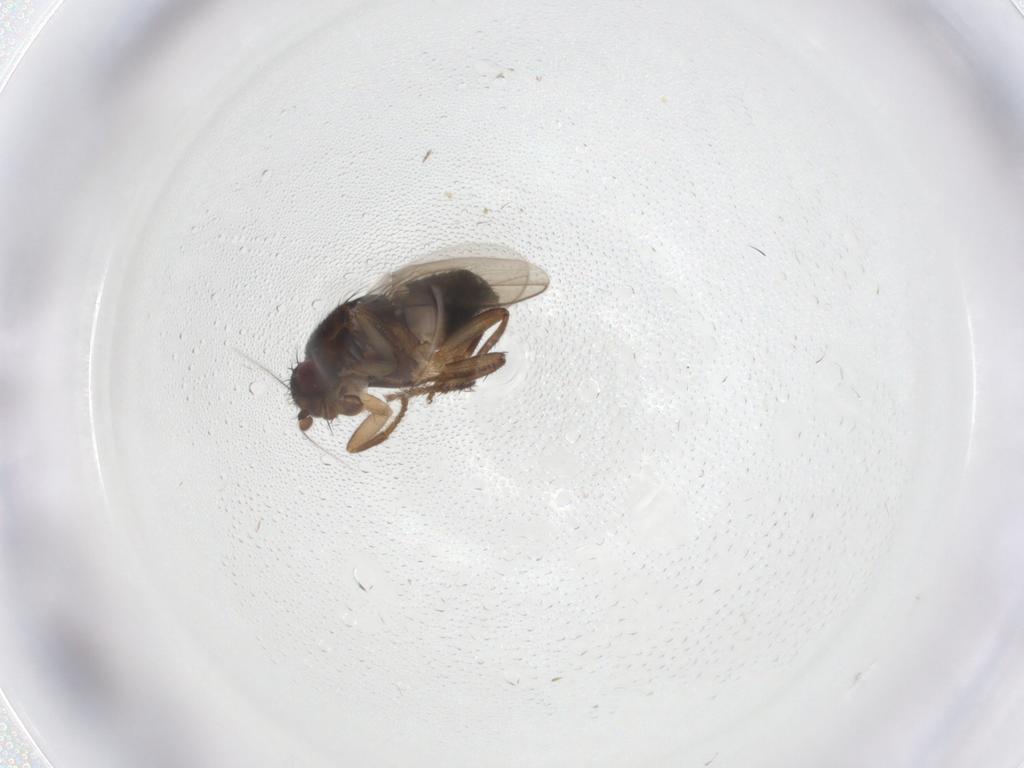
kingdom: Animalia
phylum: Arthropoda
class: Insecta
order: Diptera
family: Sphaeroceridae
